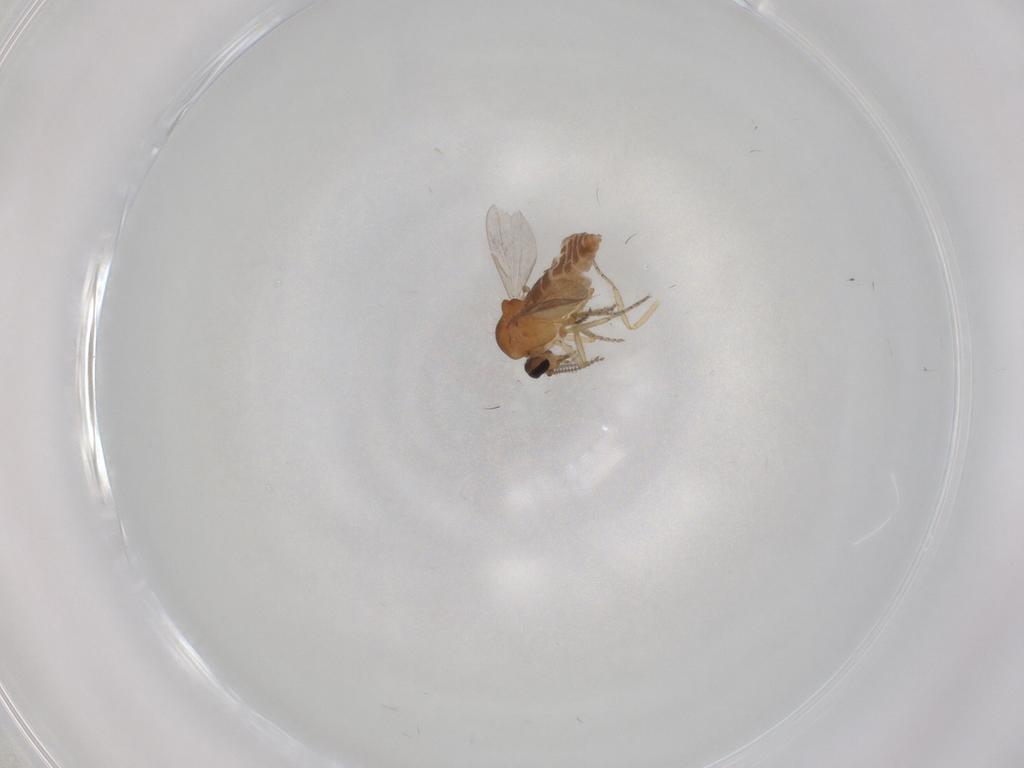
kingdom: Animalia
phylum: Arthropoda
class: Insecta
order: Diptera
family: Ceratopogonidae
